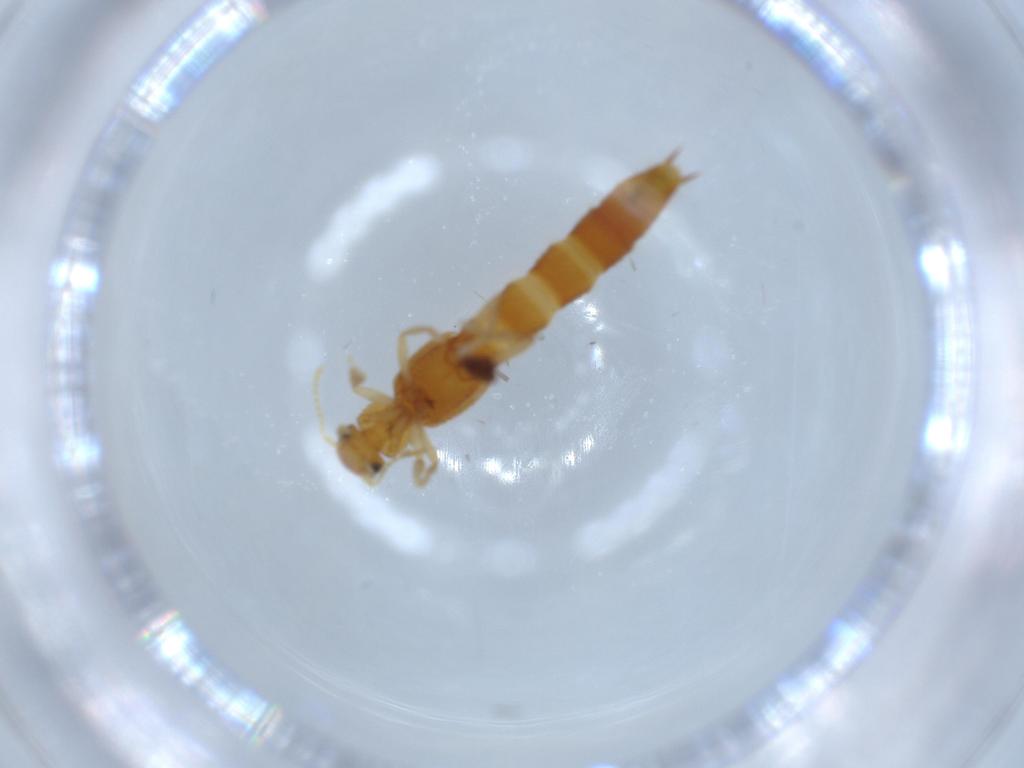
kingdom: Animalia
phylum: Arthropoda
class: Insecta
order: Coleoptera
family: Staphylinidae
